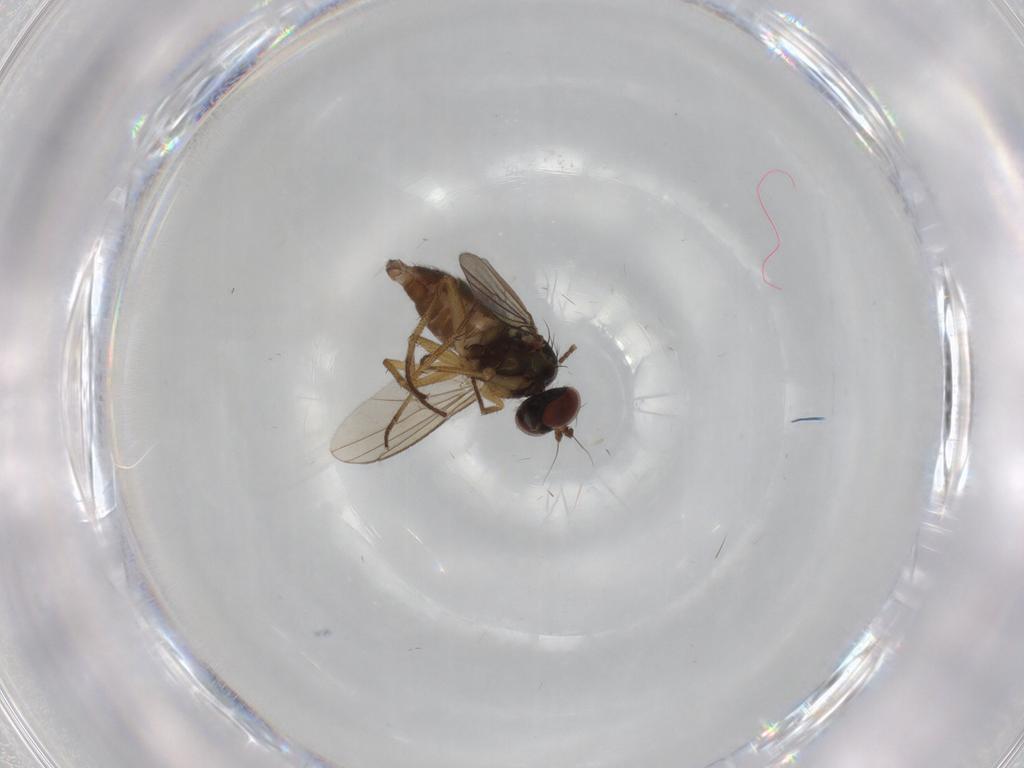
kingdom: Animalia
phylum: Arthropoda
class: Insecta
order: Diptera
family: Dolichopodidae
